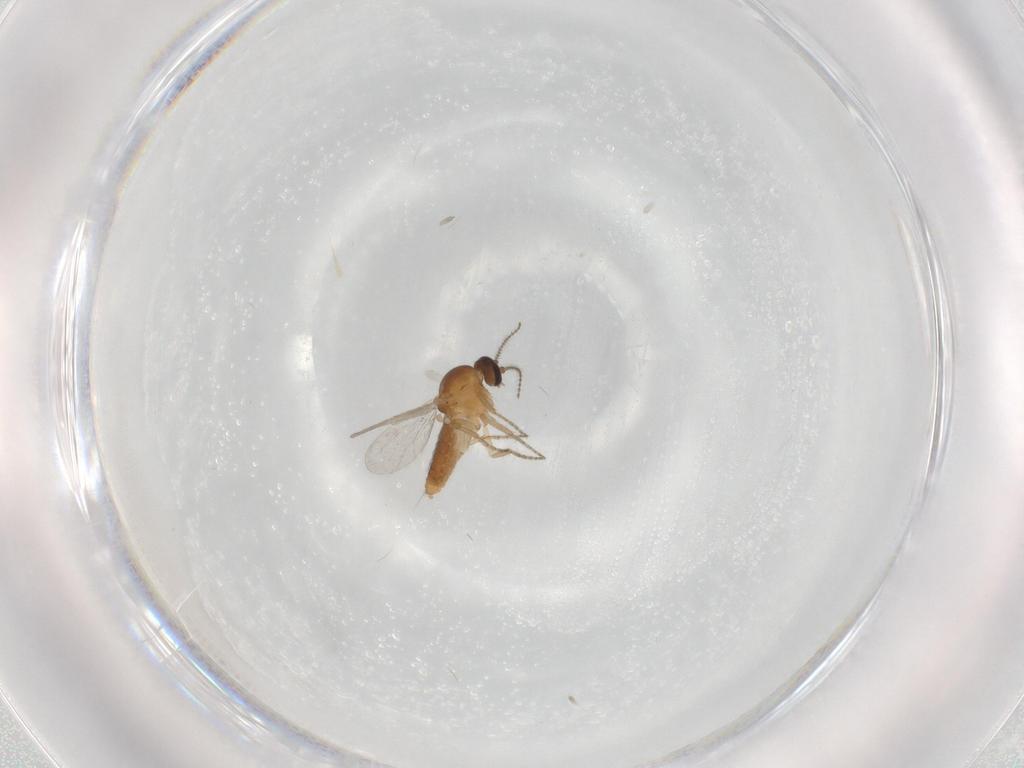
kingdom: Animalia
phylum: Arthropoda
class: Insecta
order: Diptera
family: Ceratopogonidae
